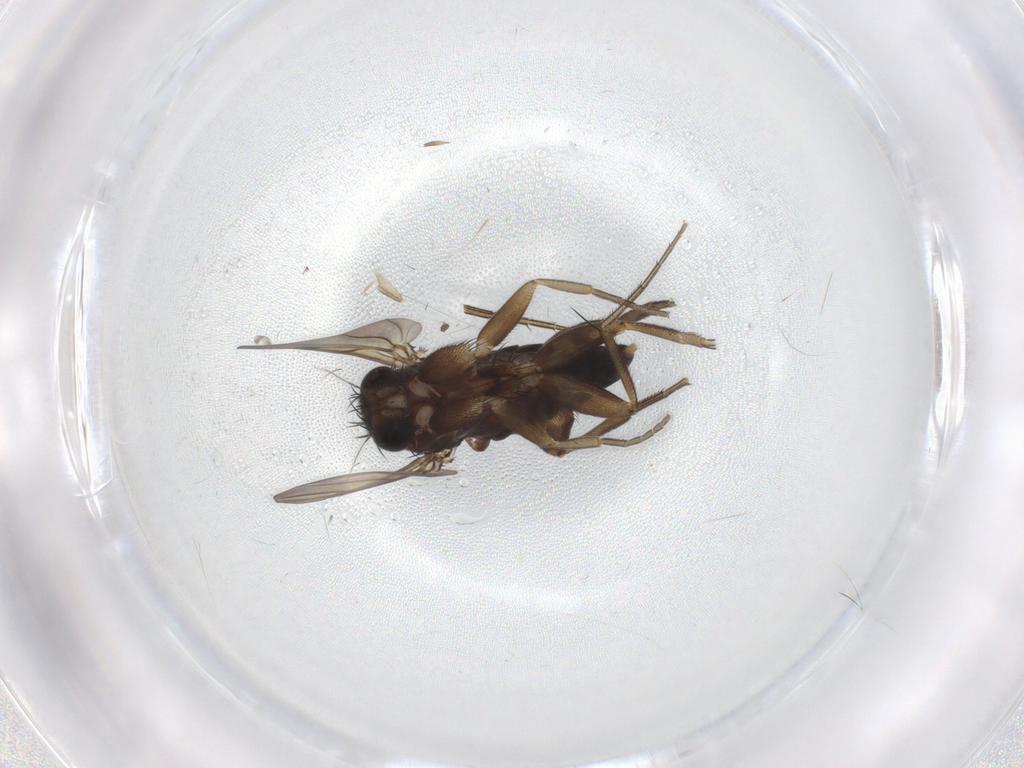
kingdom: Animalia
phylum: Arthropoda
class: Insecta
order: Diptera
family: Phoridae
